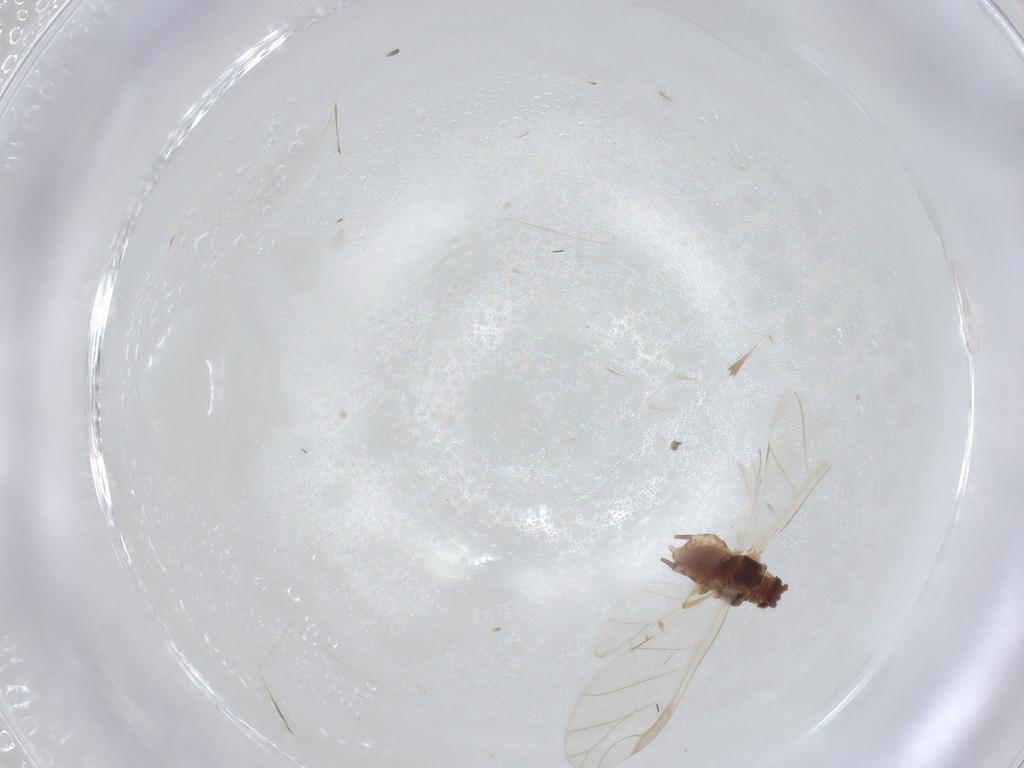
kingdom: Animalia
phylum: Arthropoda
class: Insecta
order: Hemiptera
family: Aphididae
